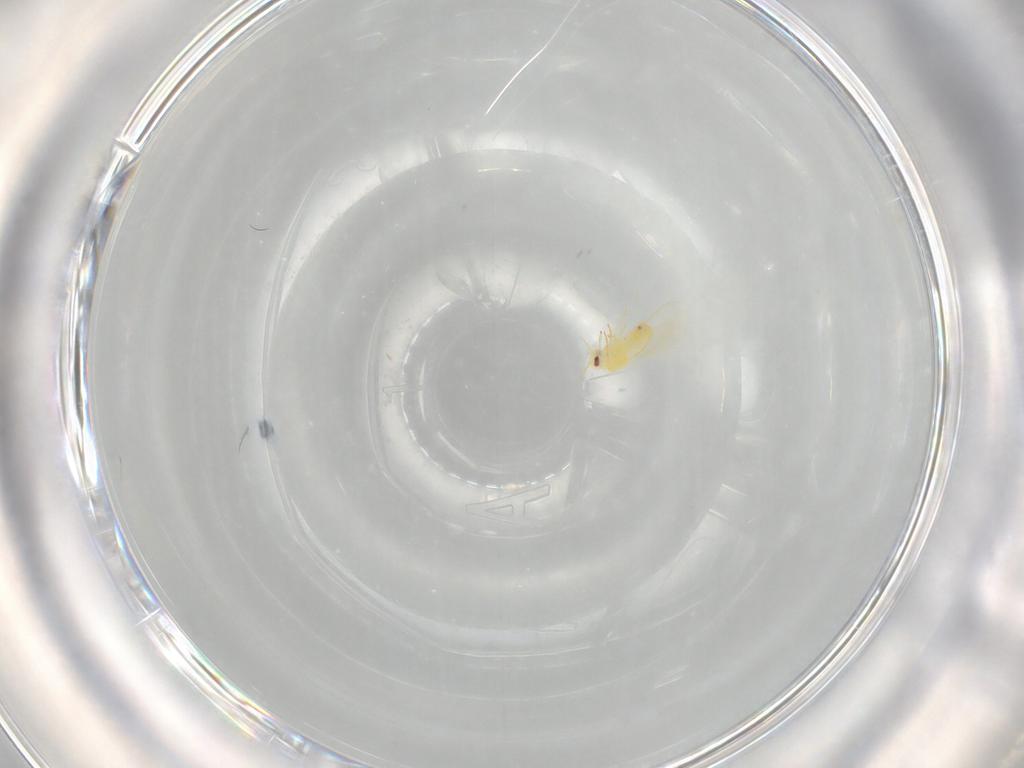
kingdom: Animalia
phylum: Arthropoda
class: Insecta
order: Hemiptera
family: Aleyrodidae
